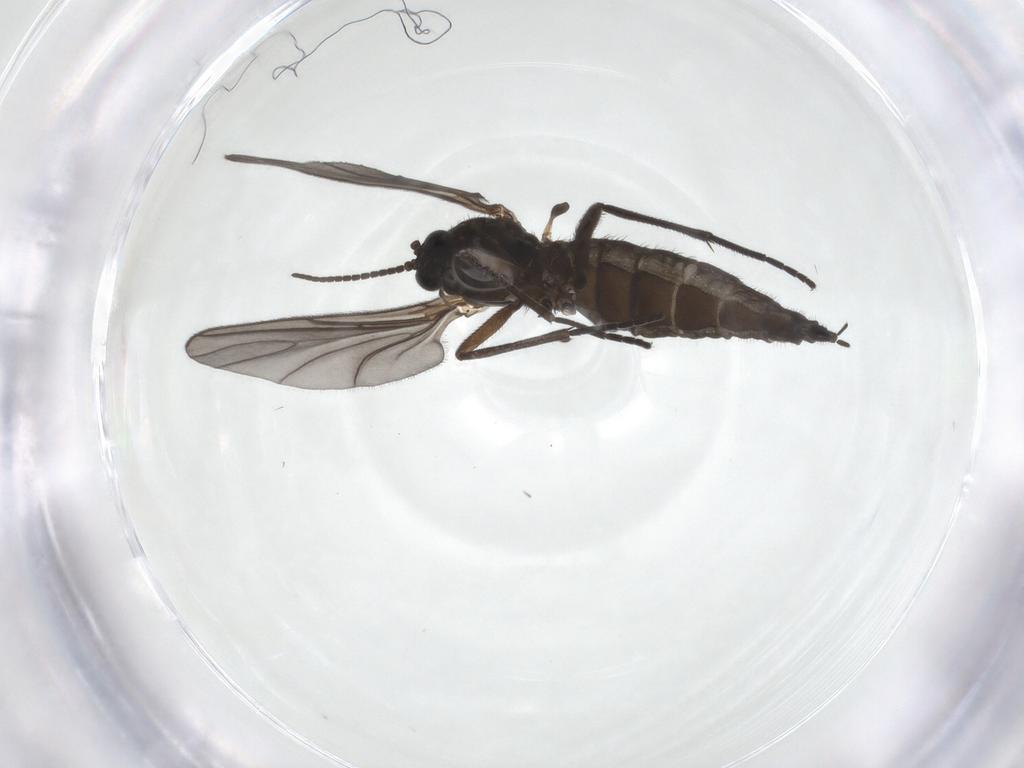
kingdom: Animalia
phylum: Arthropoda
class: Insecta
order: Diptera
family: Sciaridae
